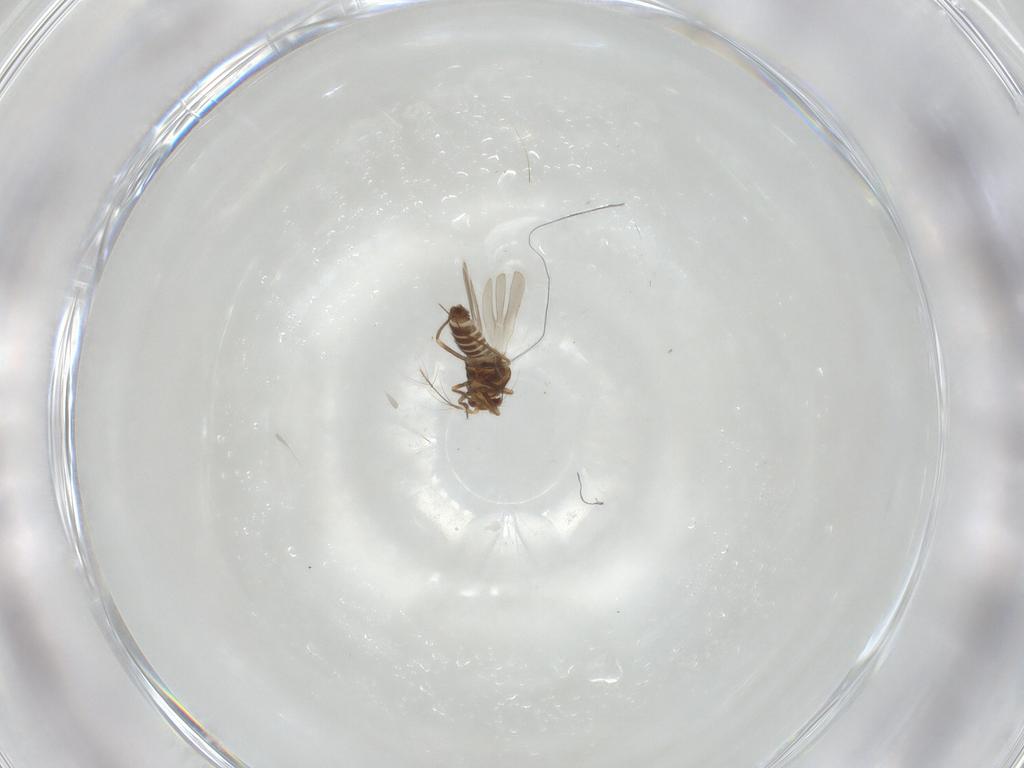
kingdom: Animalia
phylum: Arthropoda
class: Insecta
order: Hemiptera
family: Schizopteridae
